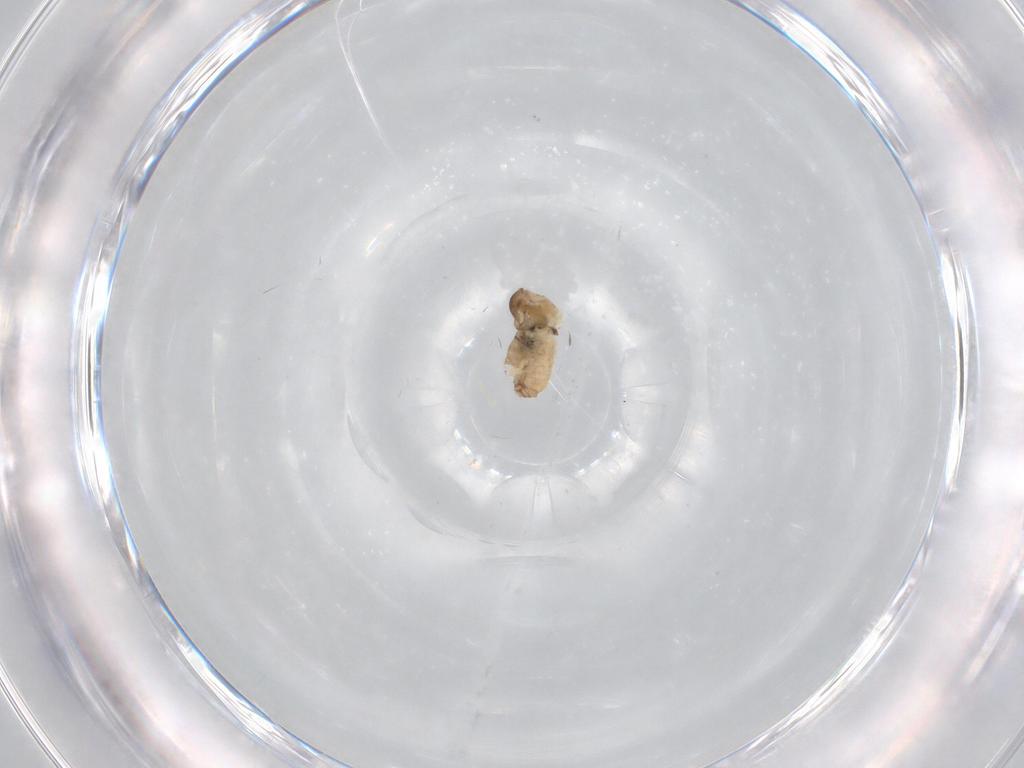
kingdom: Animalia
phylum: Arthropoda
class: Insecta
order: Diptera
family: Cecidomyiidae
